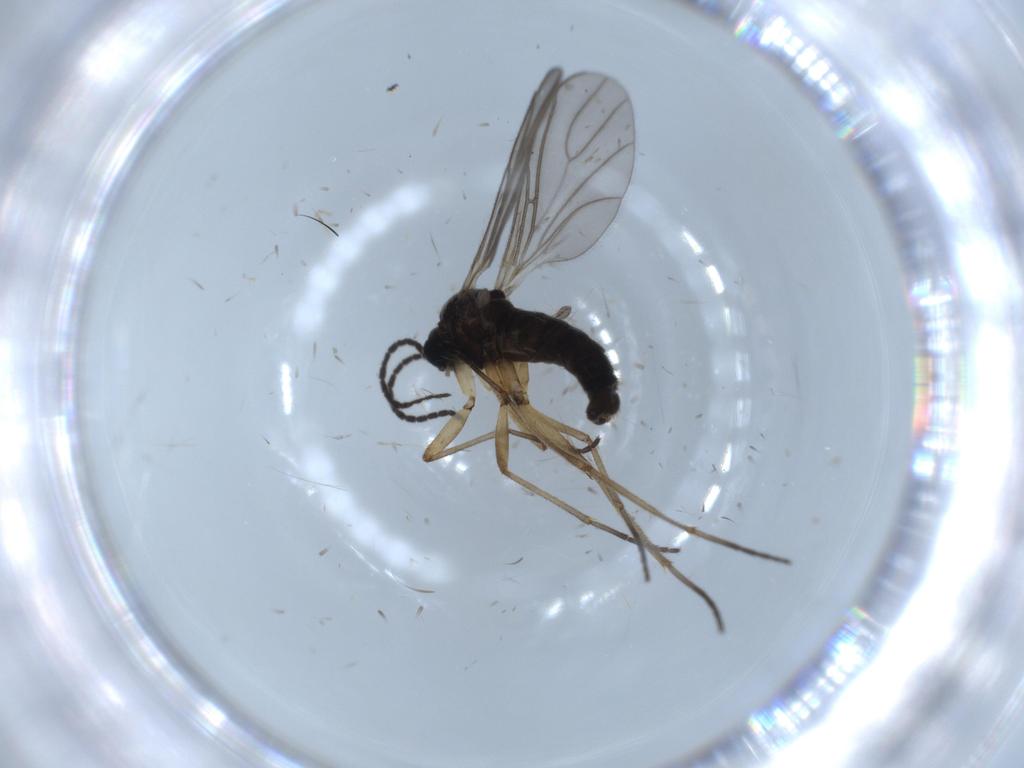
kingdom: Animalia
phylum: Arthropoda
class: Insecta
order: Diptera
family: Sciaridae
